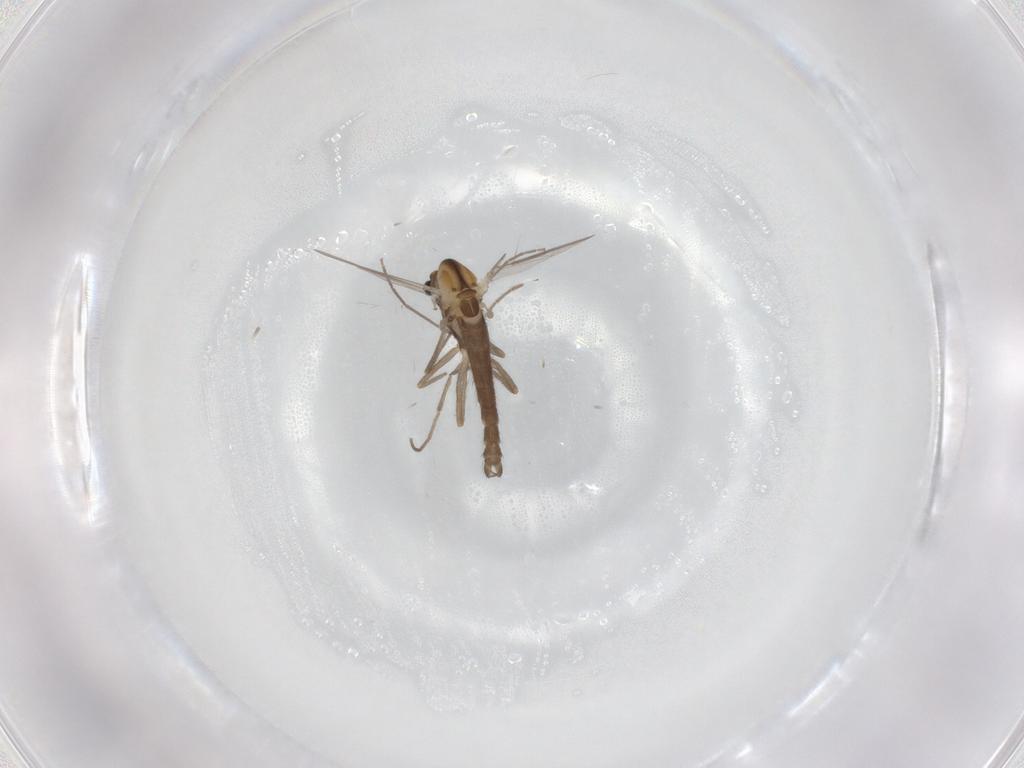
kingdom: Animalia
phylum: Arthropoda
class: Insecta
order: Diptera
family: Chironomidae
